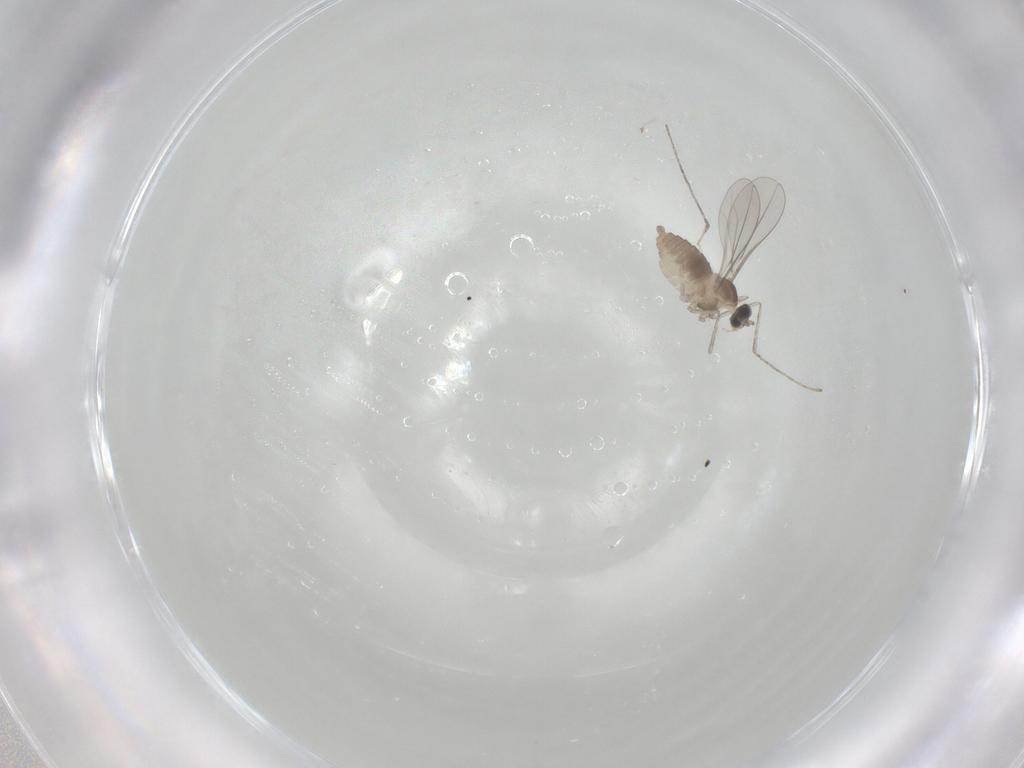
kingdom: Animalia
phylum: Arthropoda
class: Insecta
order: Diptera
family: Cecidomyiidae
